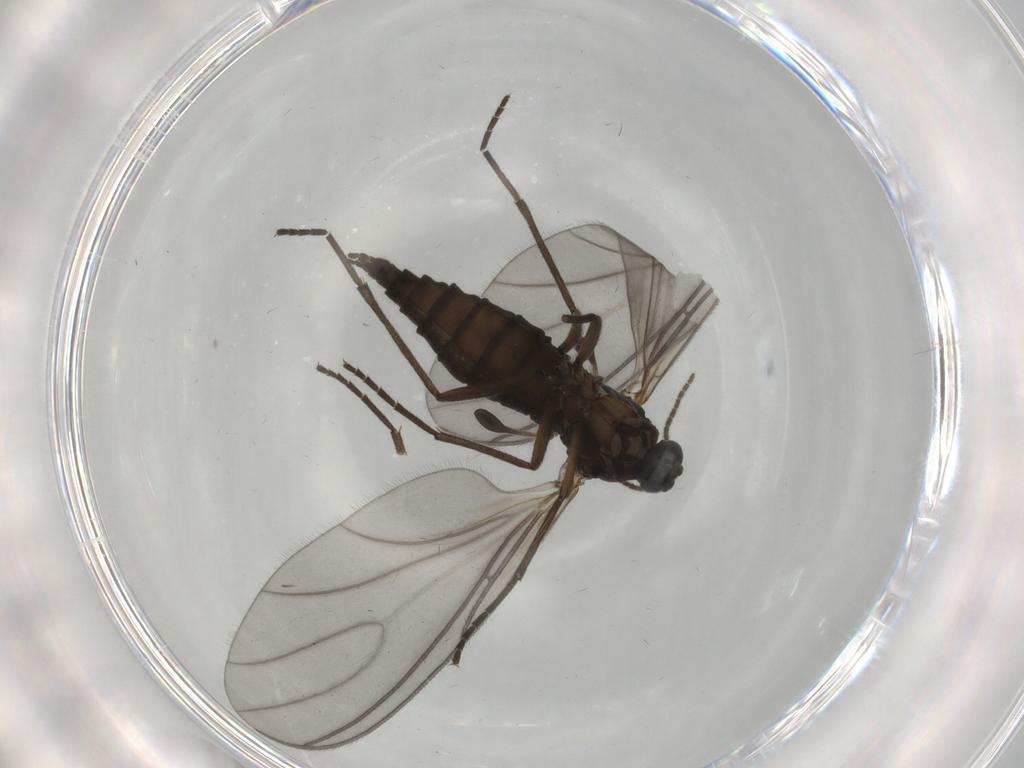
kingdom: Animalia
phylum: Arthropoda
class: Insecta
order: Diptera
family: Sciaridae
